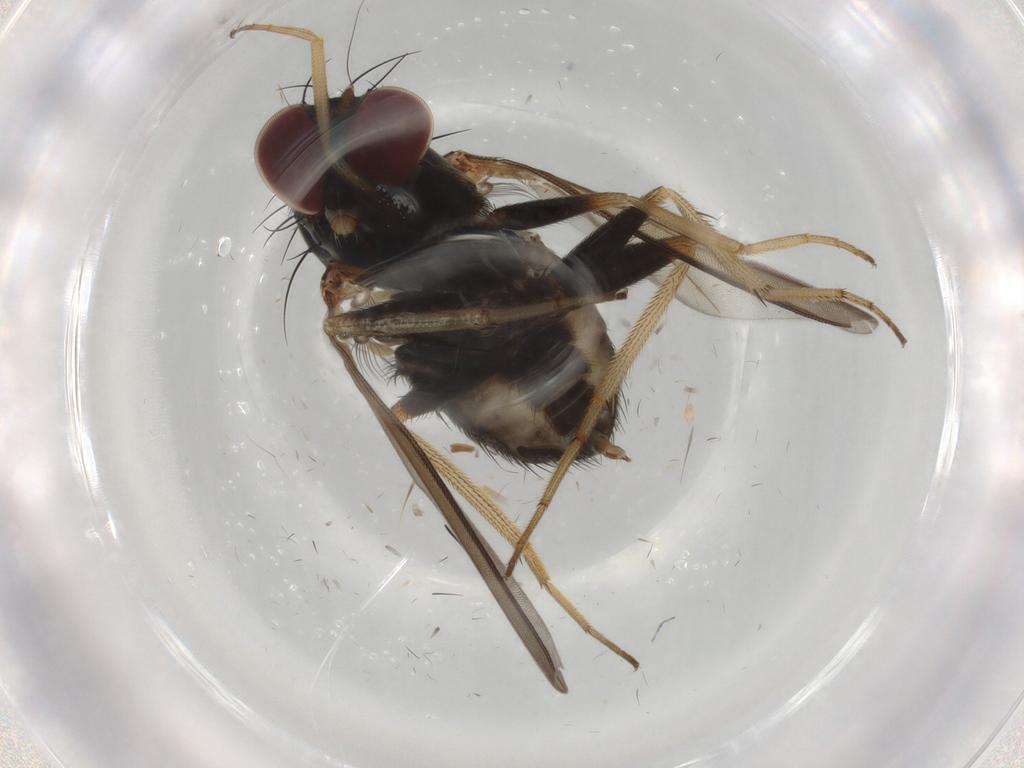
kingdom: Animalia
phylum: Arthropoda
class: Insecta
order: Diptera
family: Dolichopodidae
